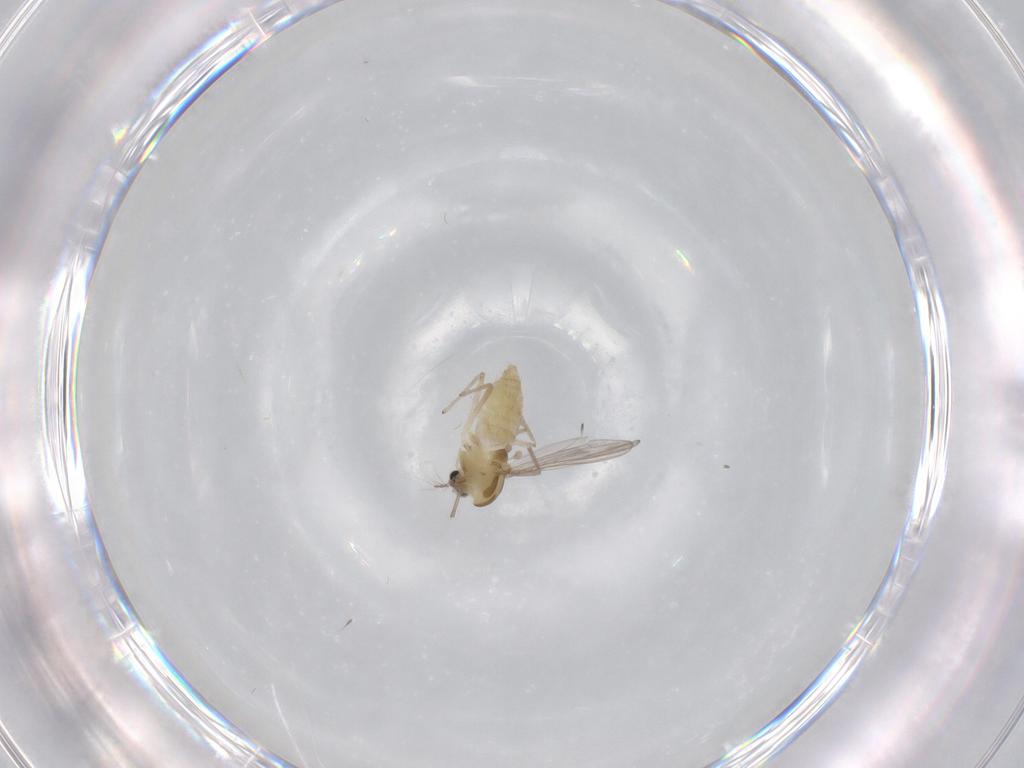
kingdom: Animalia
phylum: Arthropoda
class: Insecta
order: Diptera
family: Chironomidae
